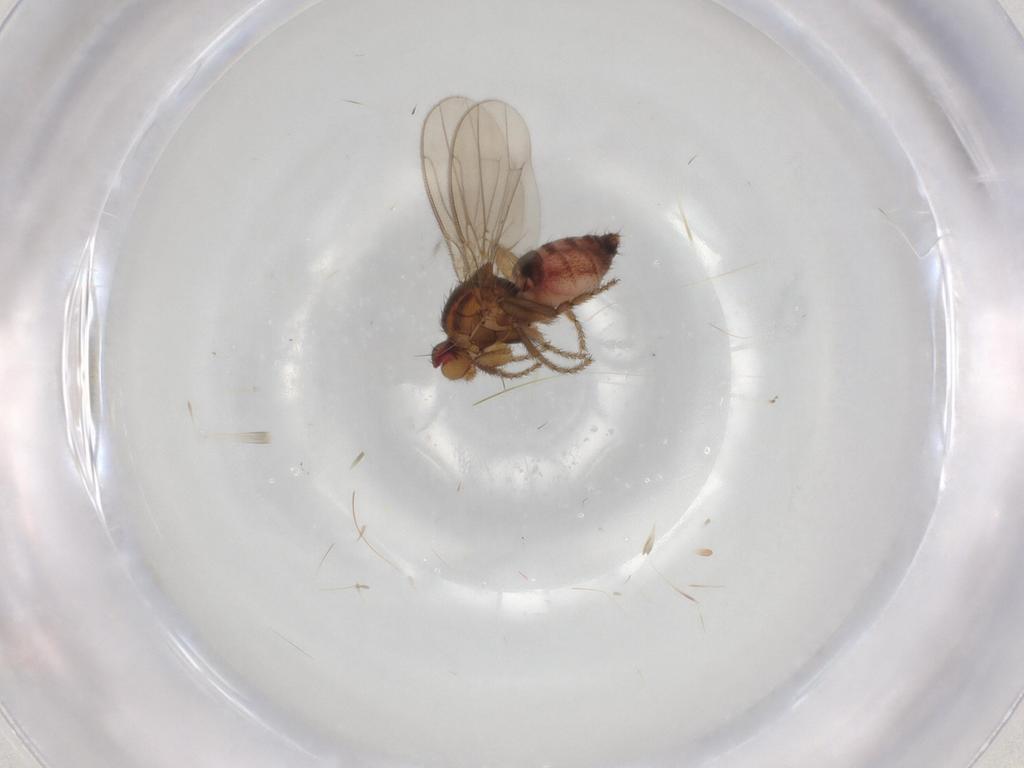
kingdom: Animalia
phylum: Arthropoda
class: Insecta
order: Diptera
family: Sphaeroceridae
